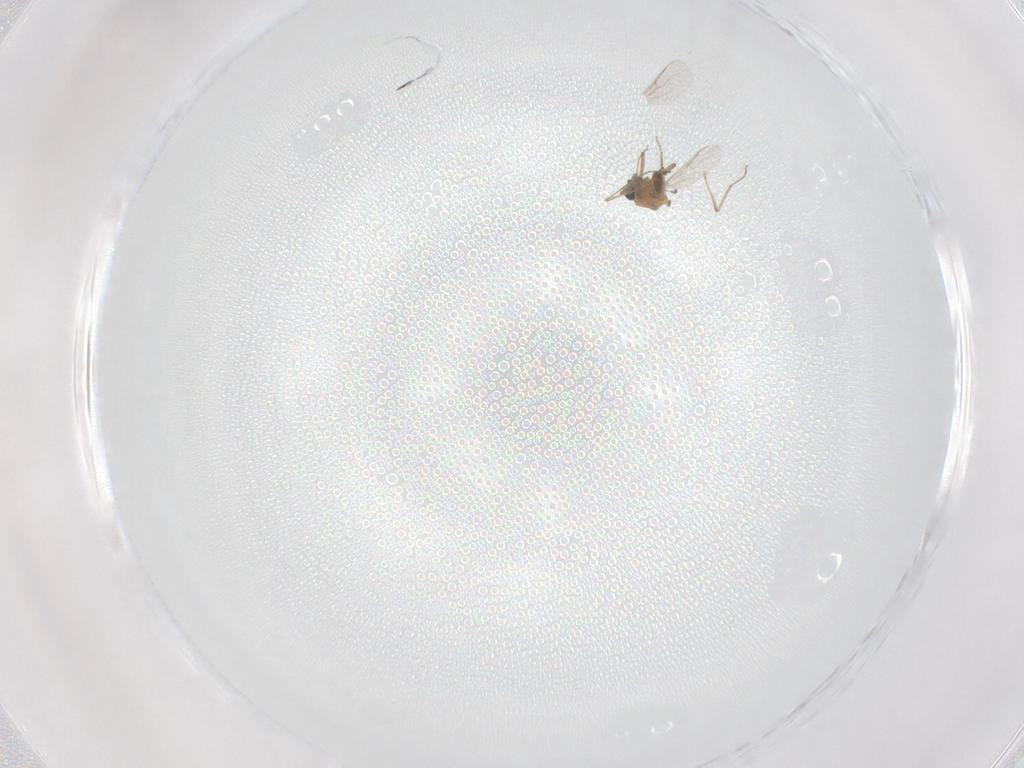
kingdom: Animalia
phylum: Arthropoda
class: Insecta
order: Diptera
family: Ceratopogonidae
